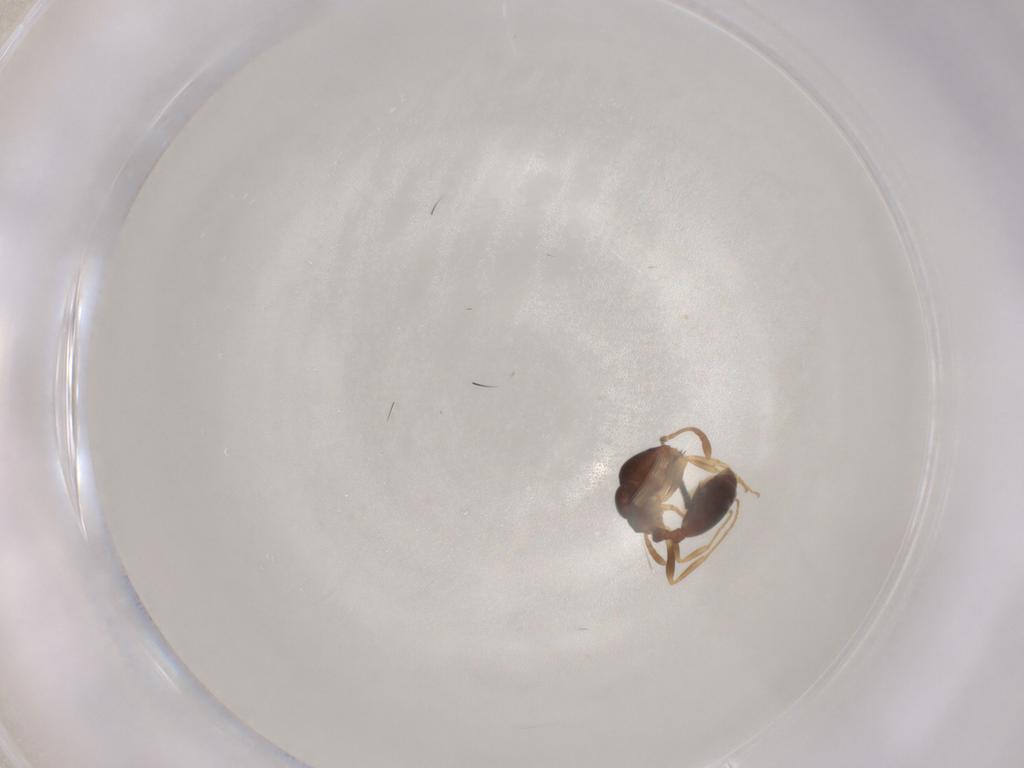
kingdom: Animalia
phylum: Arthropoda
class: Insecta
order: Hymenoptera
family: Formicidae
